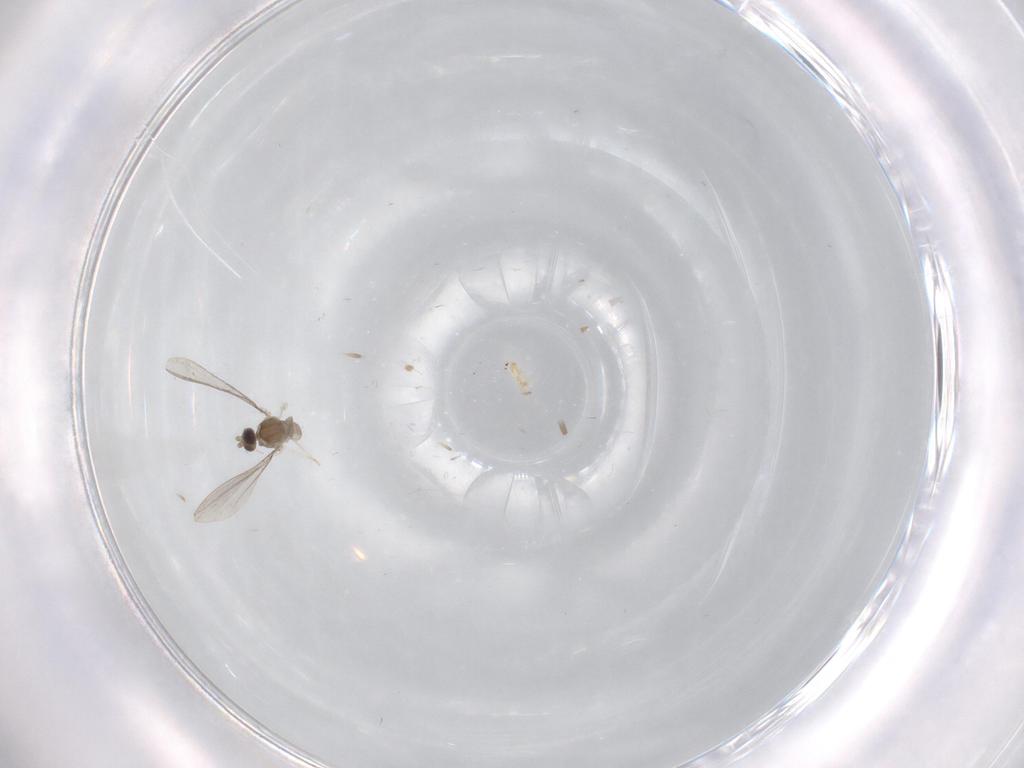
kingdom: Animalia
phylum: Arthropoda
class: Insecta
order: Diptera
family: Cecidomyiidae
